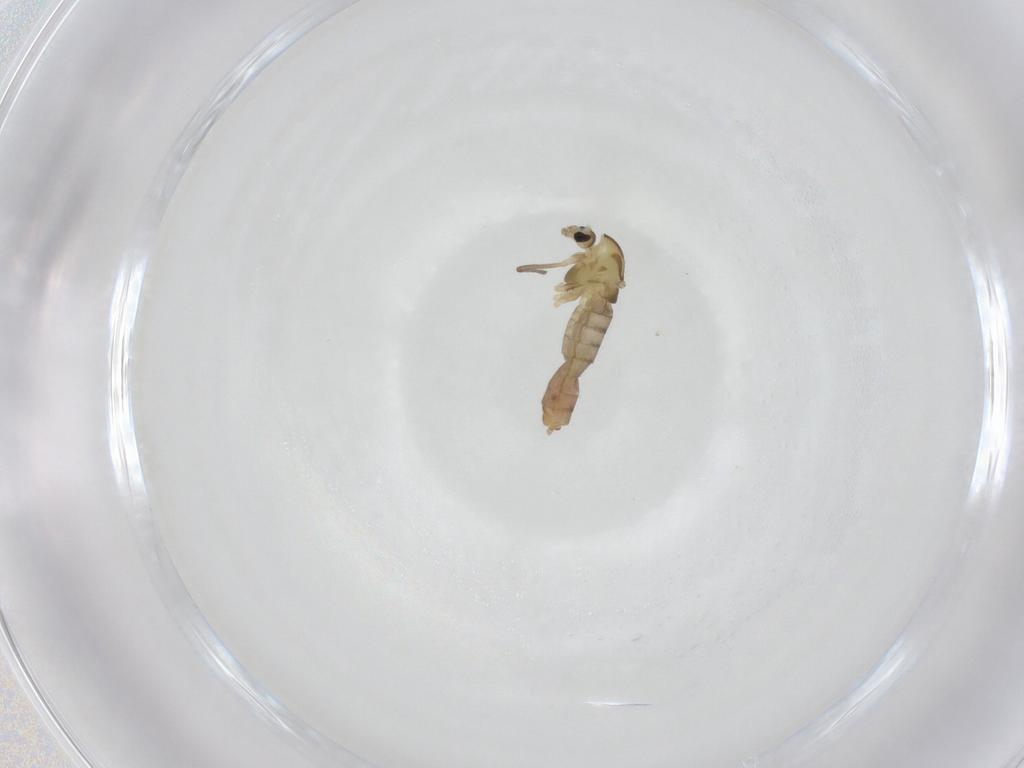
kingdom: Animalia
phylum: Arthropoda
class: Insecta
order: Diptera
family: Chironomidae
